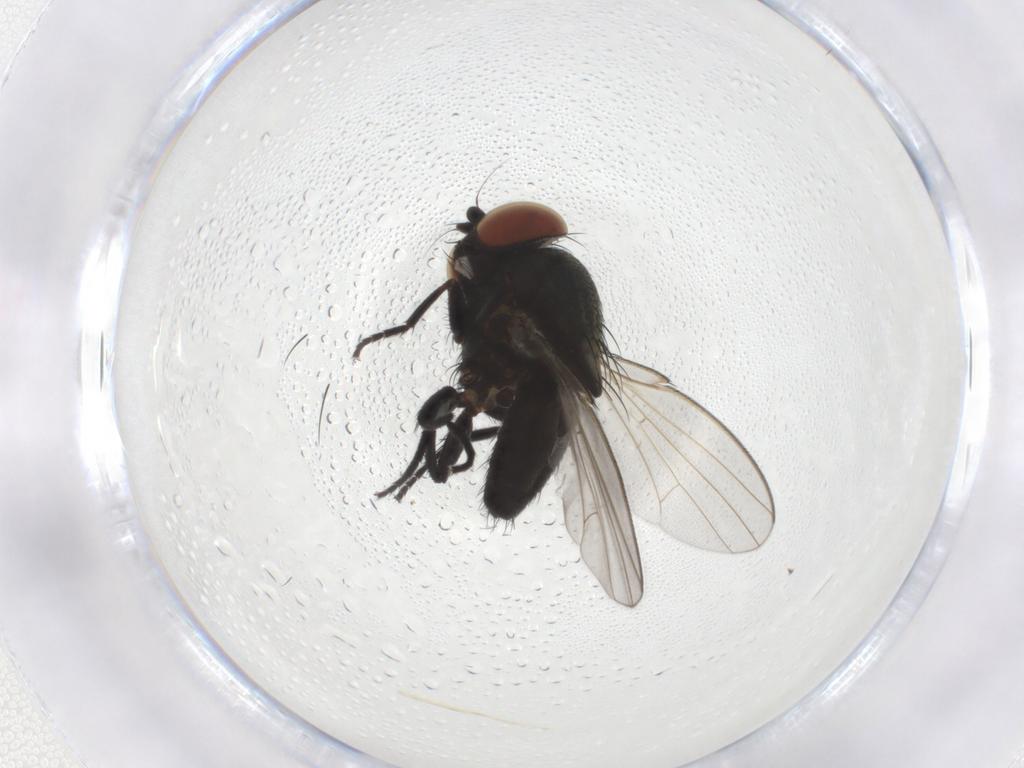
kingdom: Animalia
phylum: Arthropoda
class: Insecta
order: Diptera
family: Milichiidae
